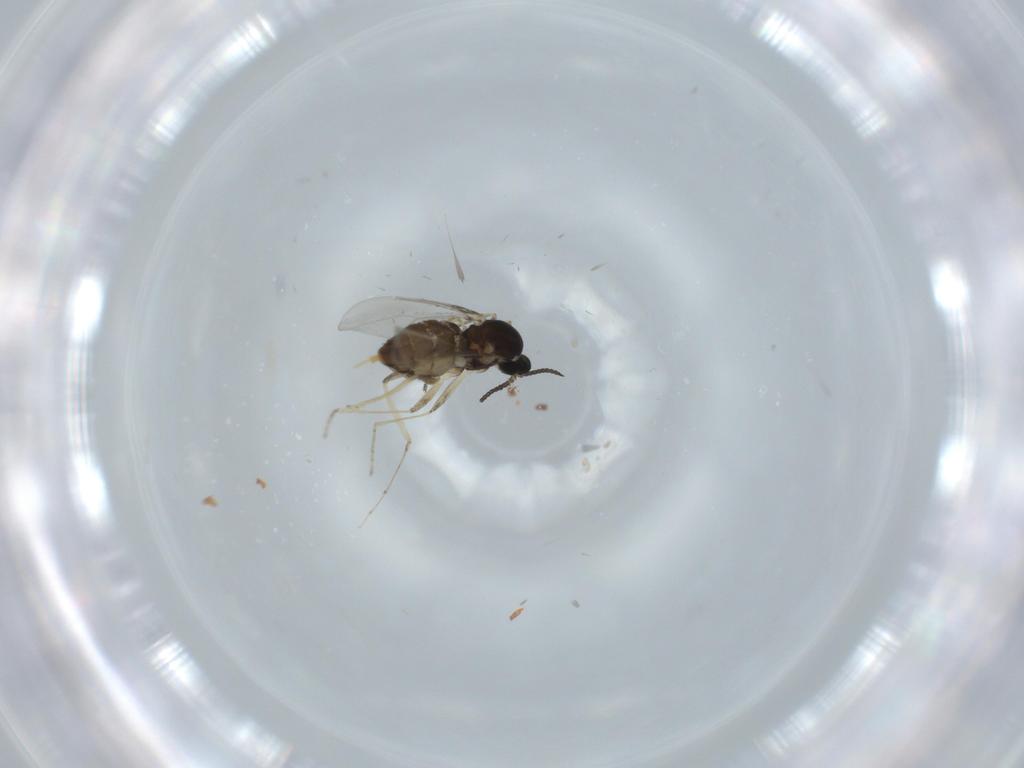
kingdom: Animalia
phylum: Arthropoda
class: Insecta
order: Diptera
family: Cecidomyiidae
